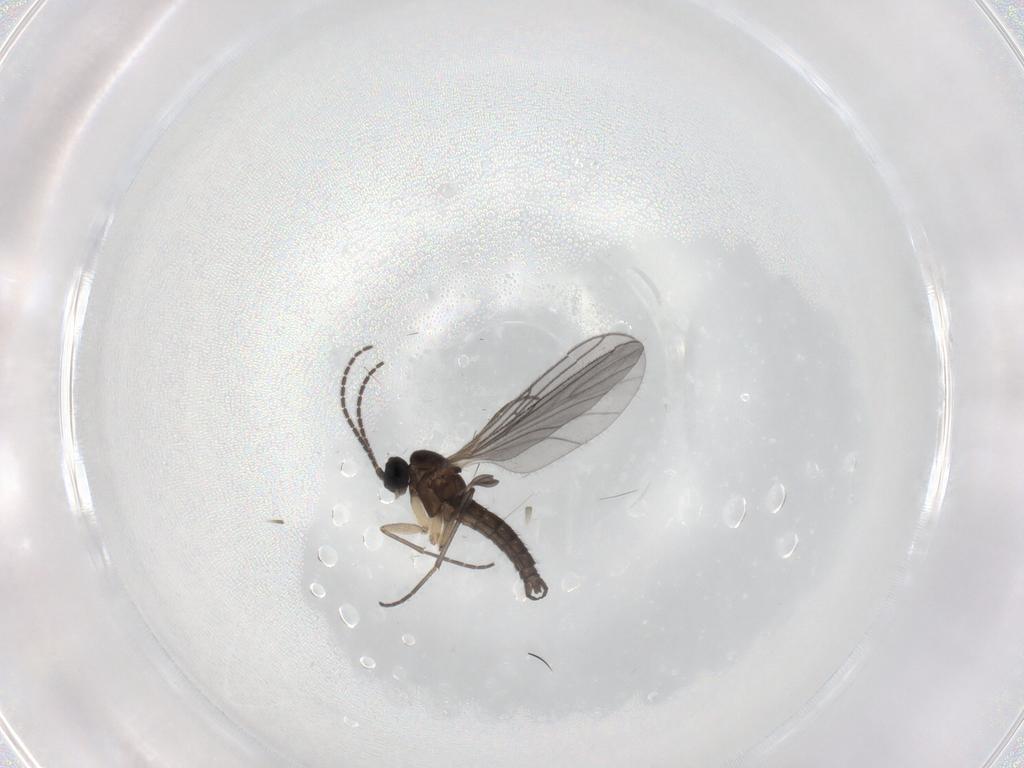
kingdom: Animalia
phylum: Arthropoda
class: Insecta
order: Diptera
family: Sciaridae
